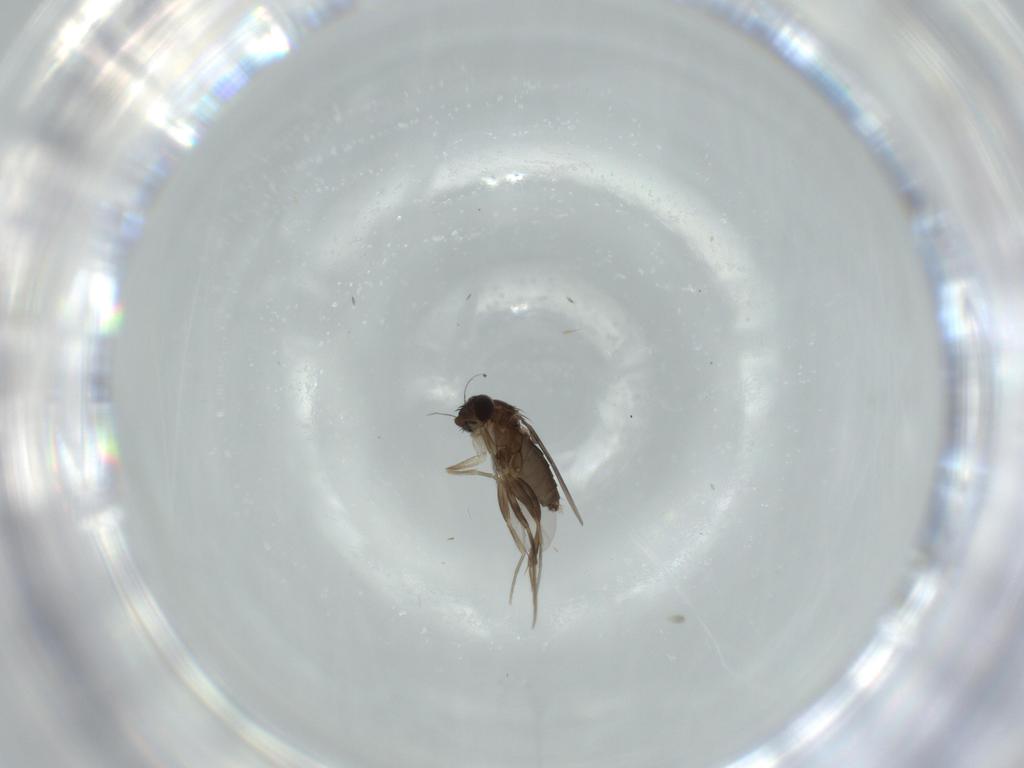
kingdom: Animalia
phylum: Arthropoda
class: Insecta
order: Diptera
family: Phoridae
